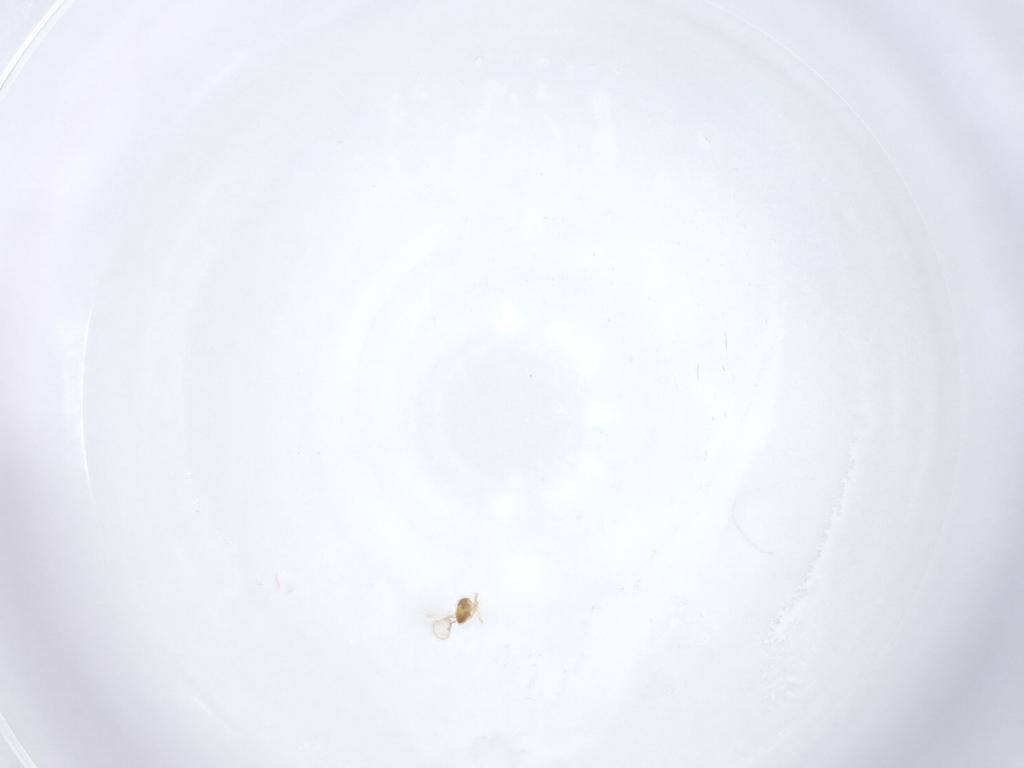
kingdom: Animalia
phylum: Arthropoda
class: Insecta
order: Hymenoptera
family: Aphelinidae
